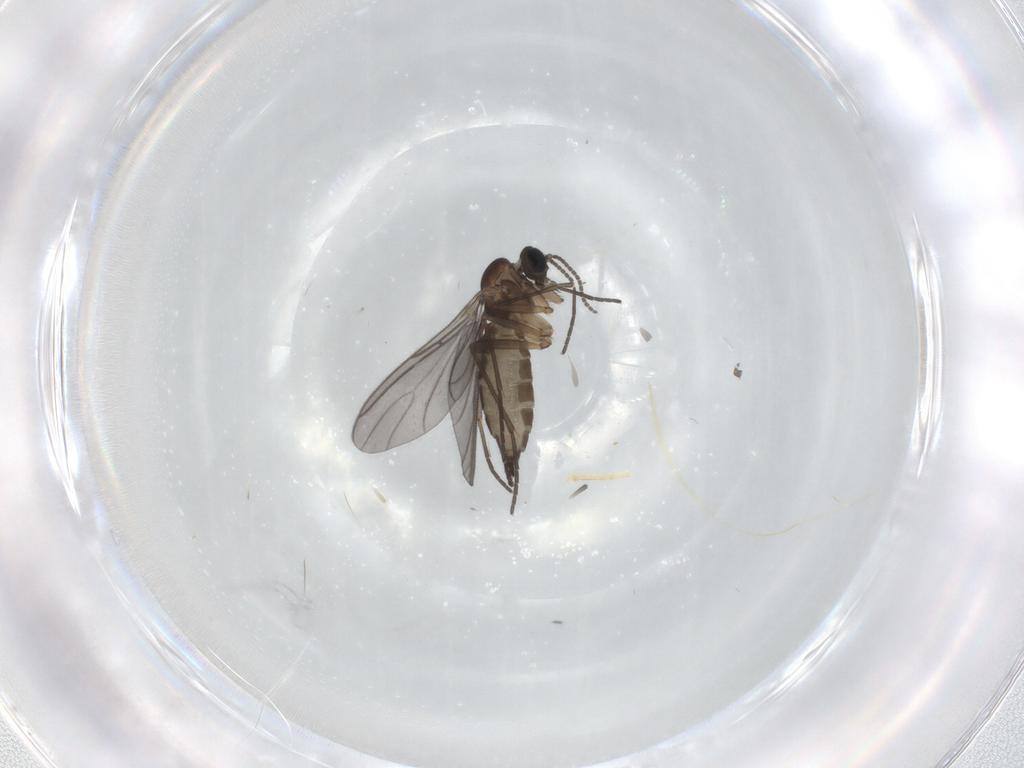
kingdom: Animalia
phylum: Arthropoda
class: Insecta
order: Diptera
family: Sciaridae
